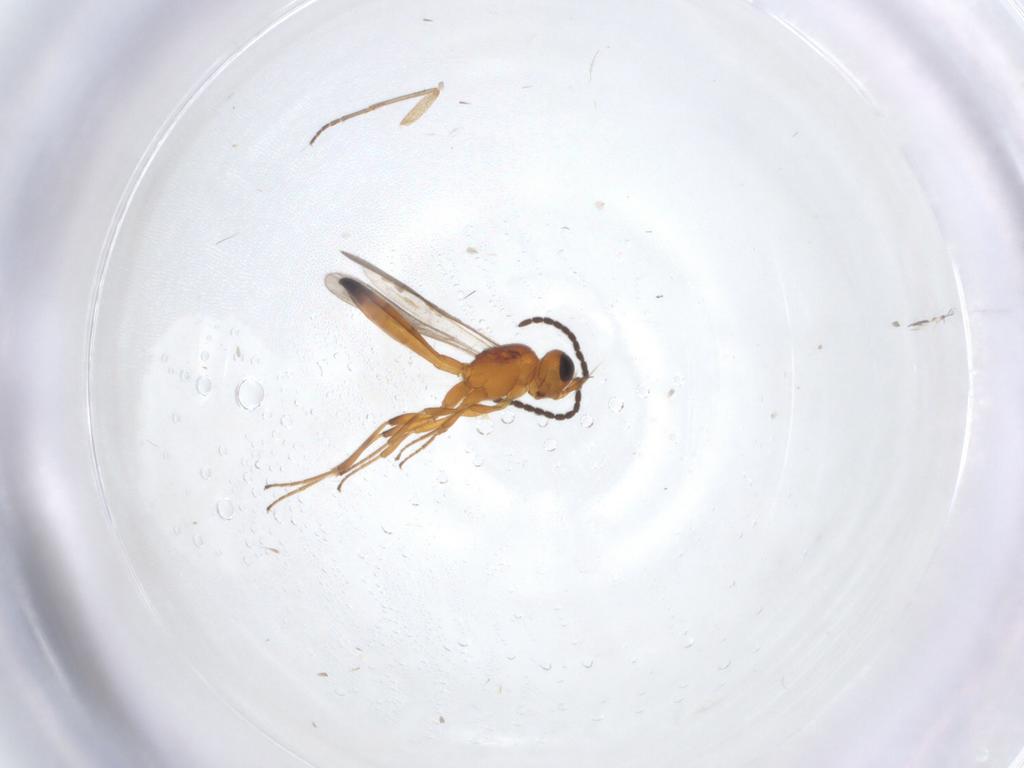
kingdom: Animalia
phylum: Arthropoda
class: Insecta
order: Hymenoptera
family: Scelionidae
